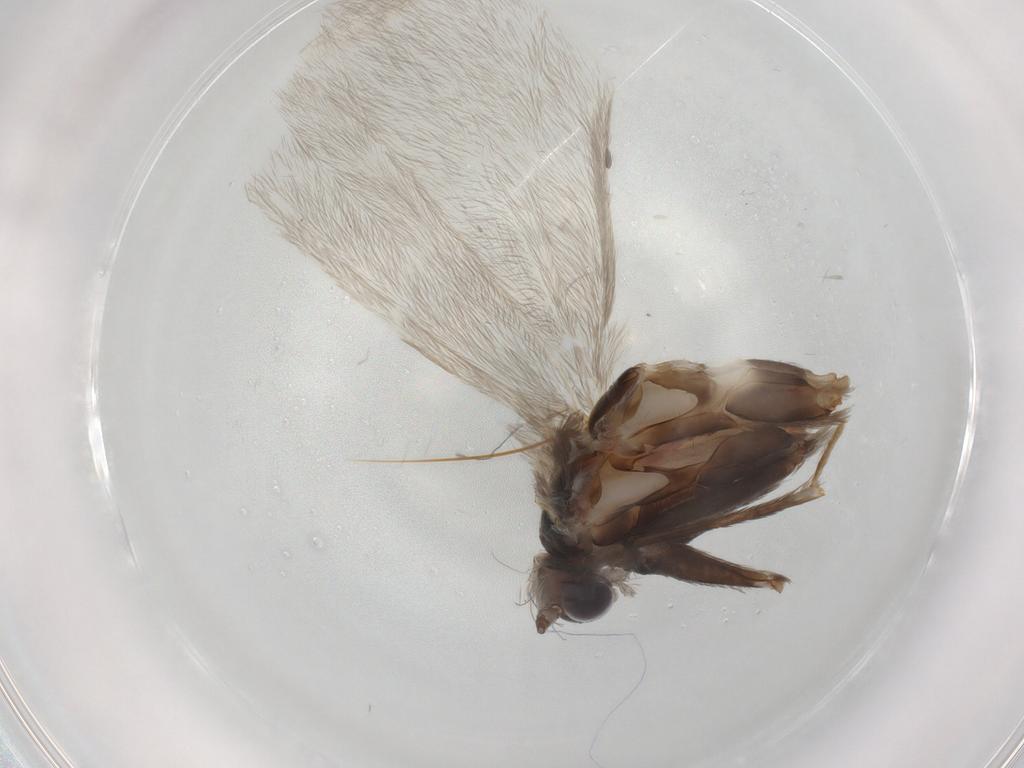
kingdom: Animalia
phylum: Arthropoda
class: Insecta
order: Lepidoptera
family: Psychidae
